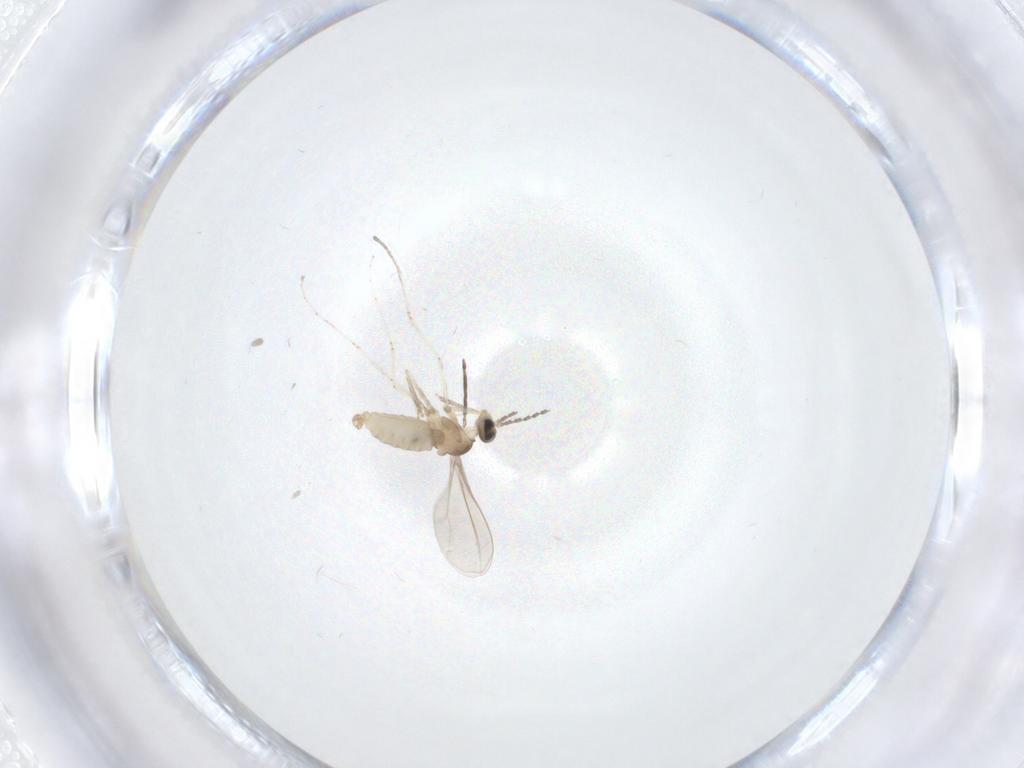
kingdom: Animalia
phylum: Arthropoda
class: Insecta
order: Diptera
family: Cecidomyiidae
